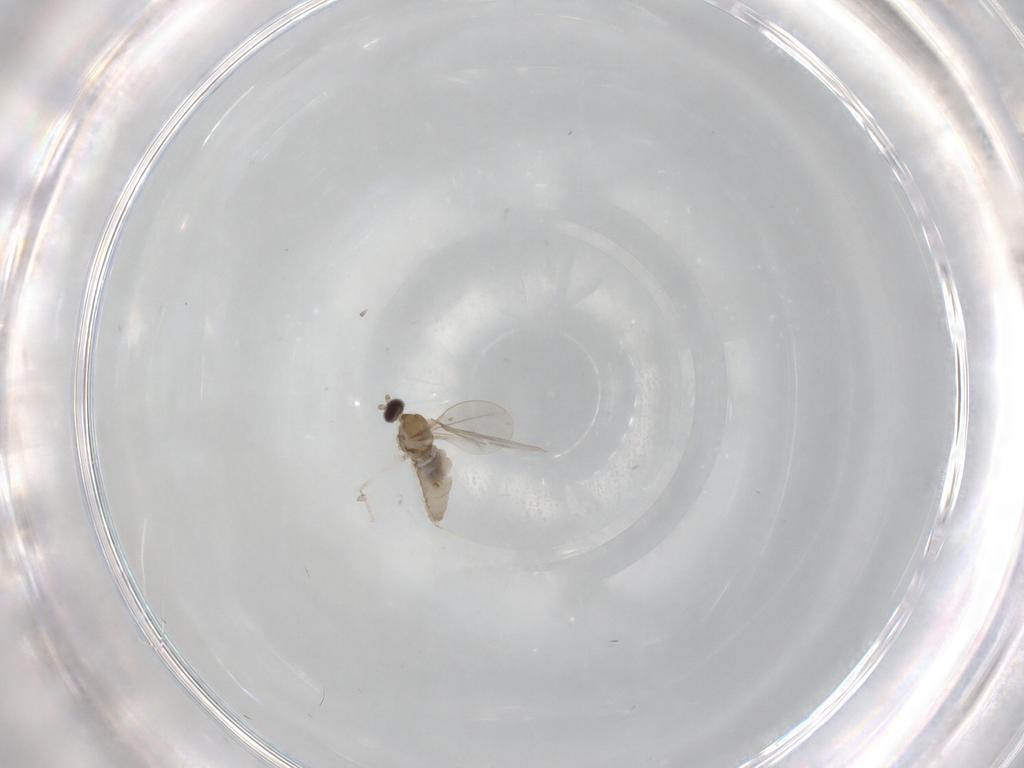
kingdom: Animalia
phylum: Arthropoda
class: Insecta
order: Diptera
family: Cecidomyiidae
